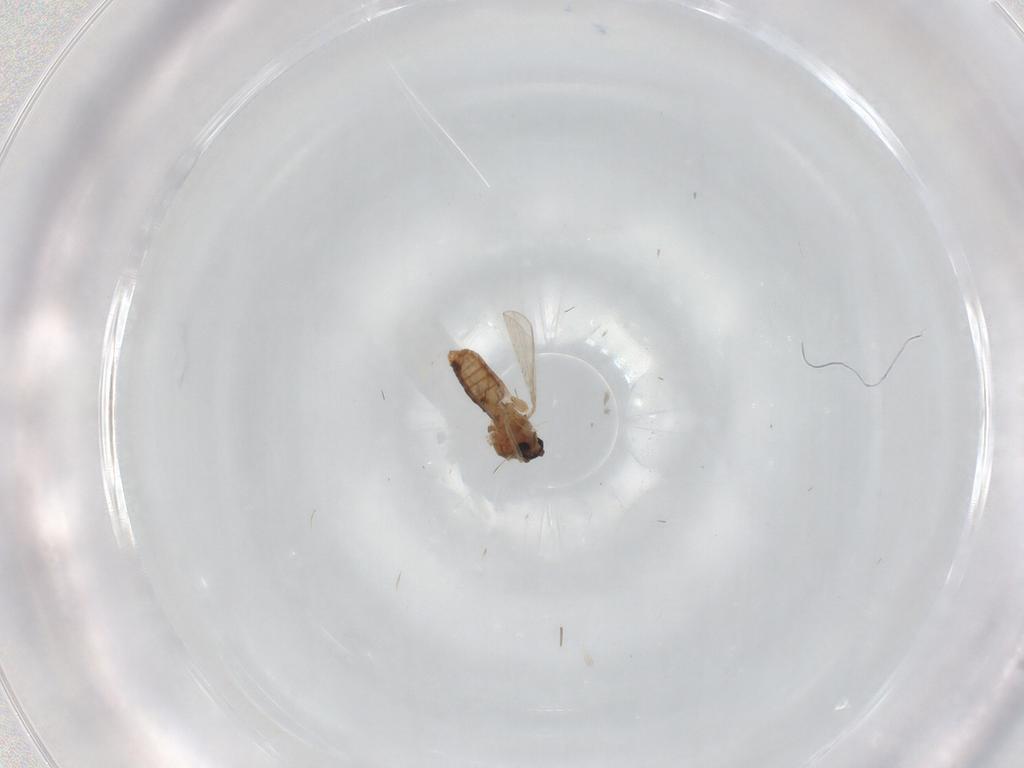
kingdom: Animalia
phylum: Arthropoda
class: Insecta
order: Diptera
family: Ceratopogonidae
